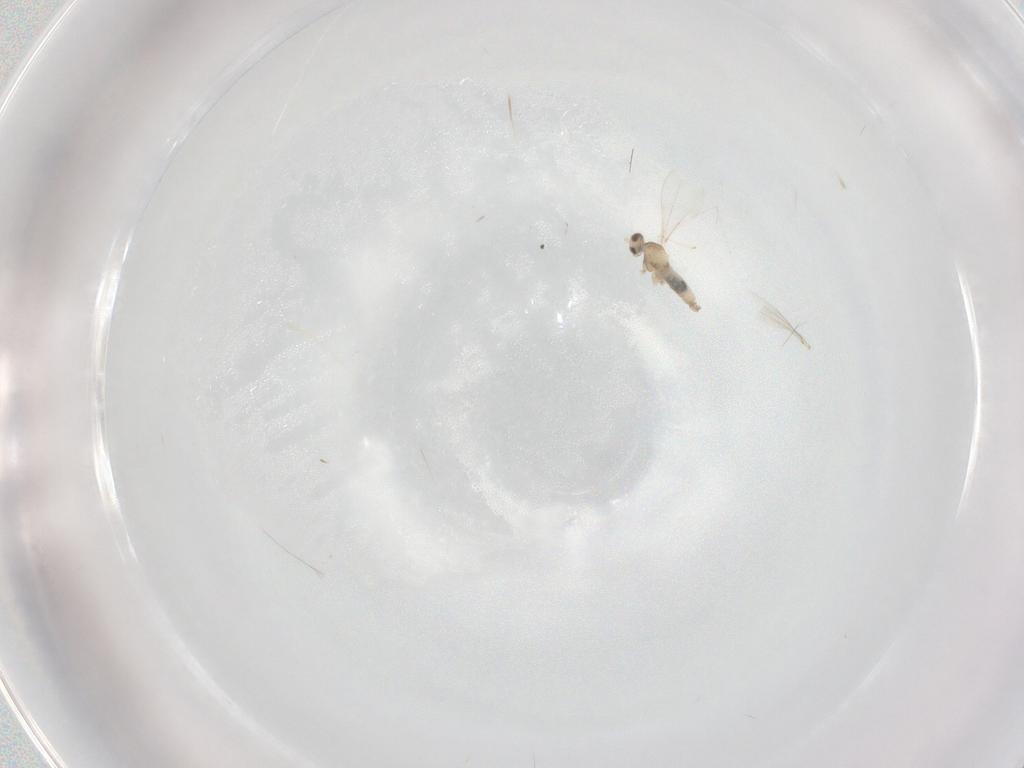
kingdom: Animalia
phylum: Arthropoda
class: Insecta
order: Diptera
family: Cecidomyiidae
